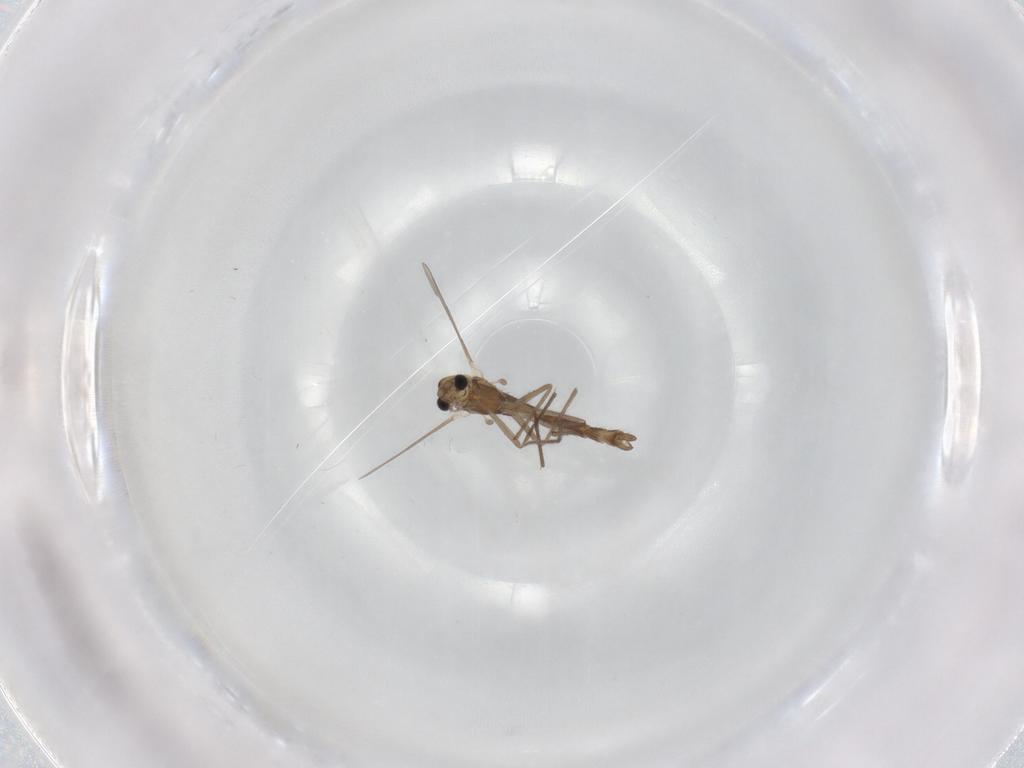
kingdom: Animalia
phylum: Arthropoda
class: Insecta
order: Diptera
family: Chironomidae
